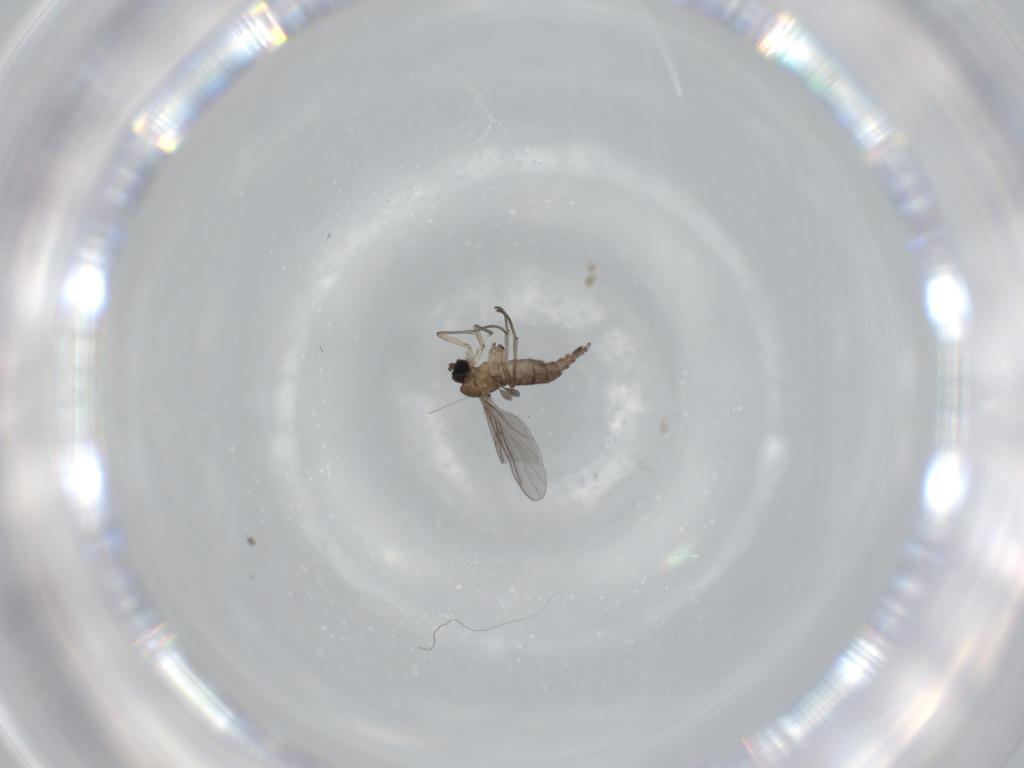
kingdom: Animalia
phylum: Arthropoda
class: Insecta
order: Diptera
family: Sciaridae
